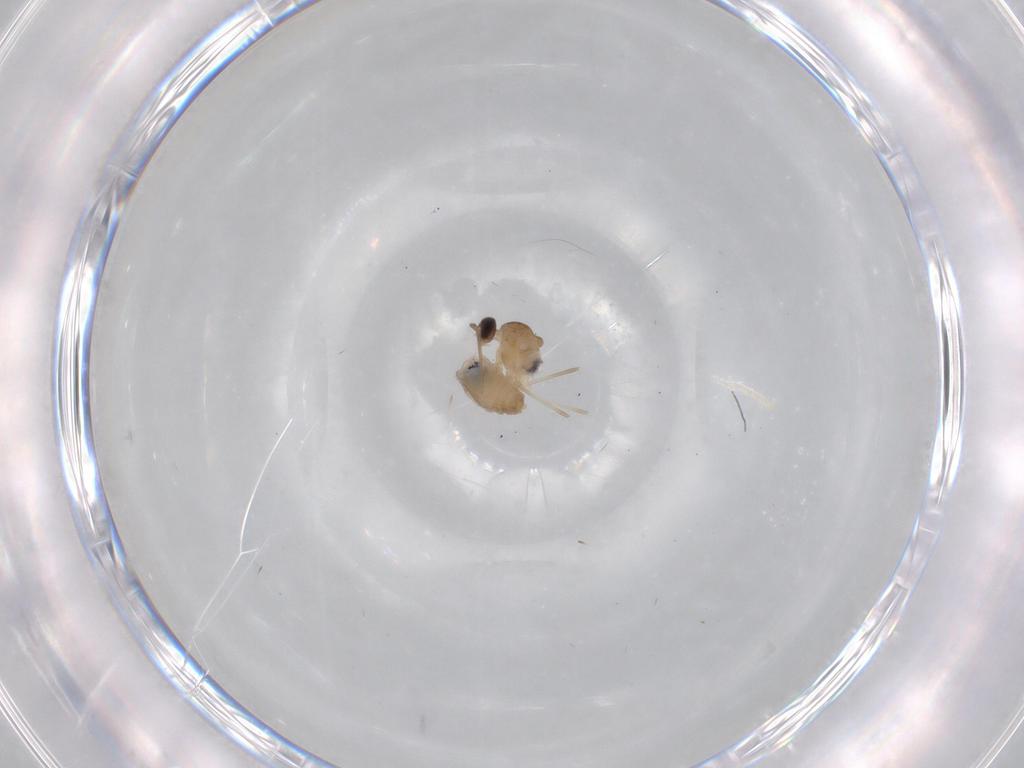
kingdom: Animalia
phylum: Arthropoda
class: Insecta
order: Diptera
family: Cecidomyiidae
